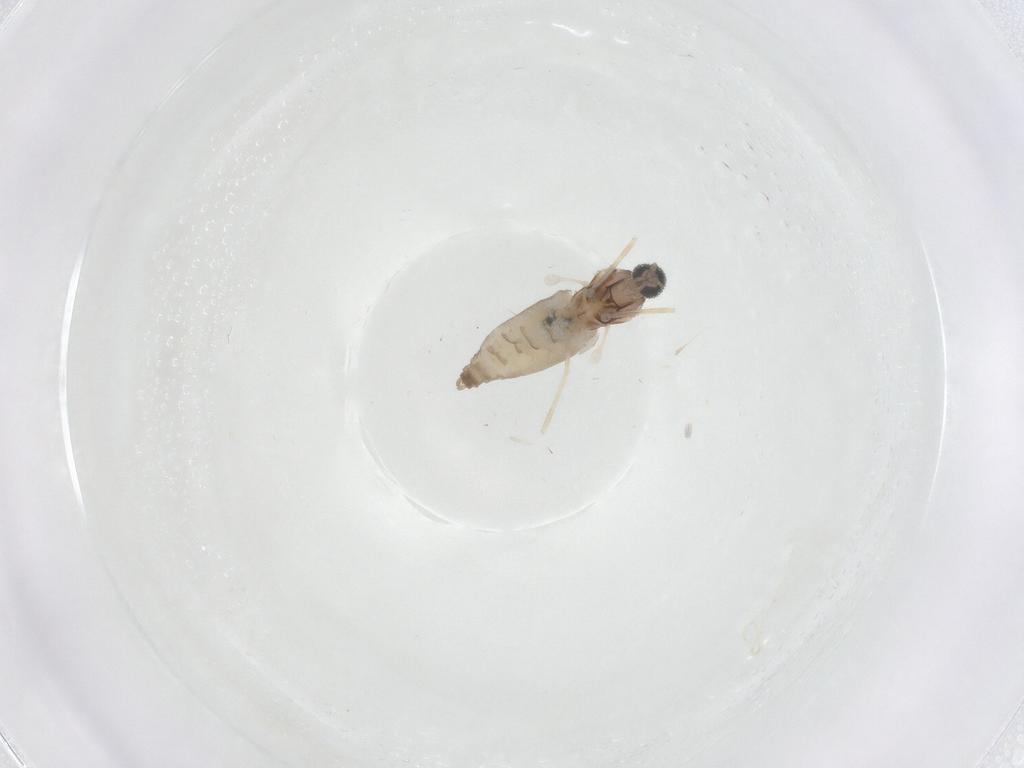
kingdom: Animalia
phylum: Arthropoda
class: Insecta
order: Diptera
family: Cecidomyiidae
